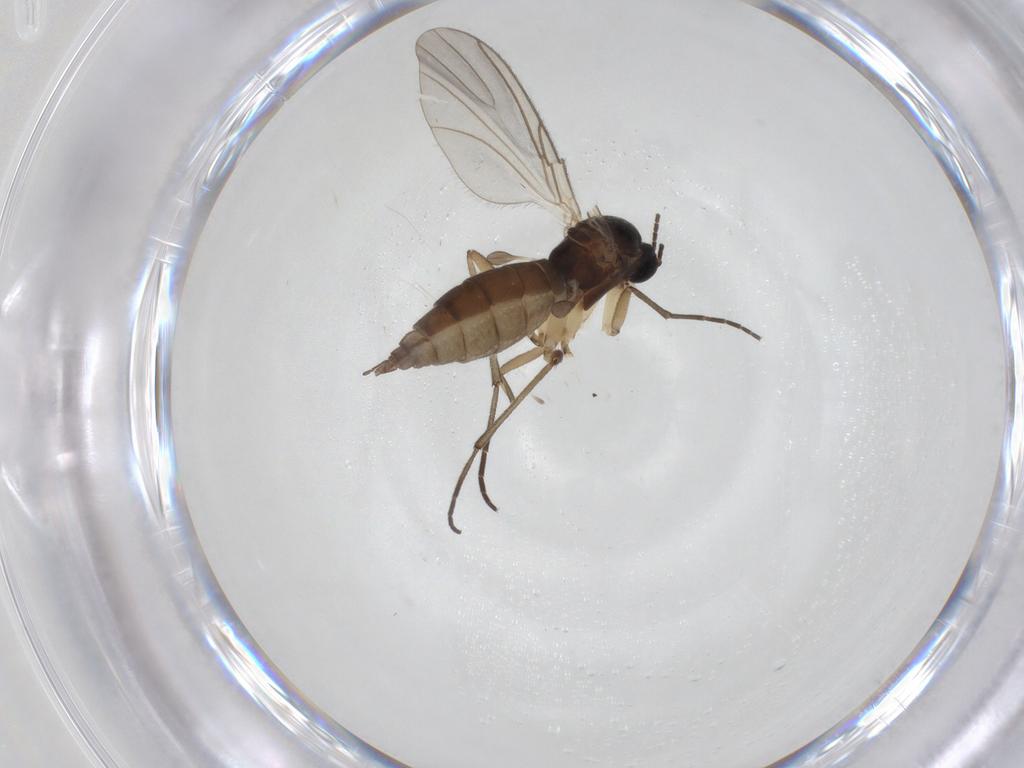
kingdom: Animalia
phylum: Arthropoda
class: Insecta
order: Diptera
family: Sciaridae
